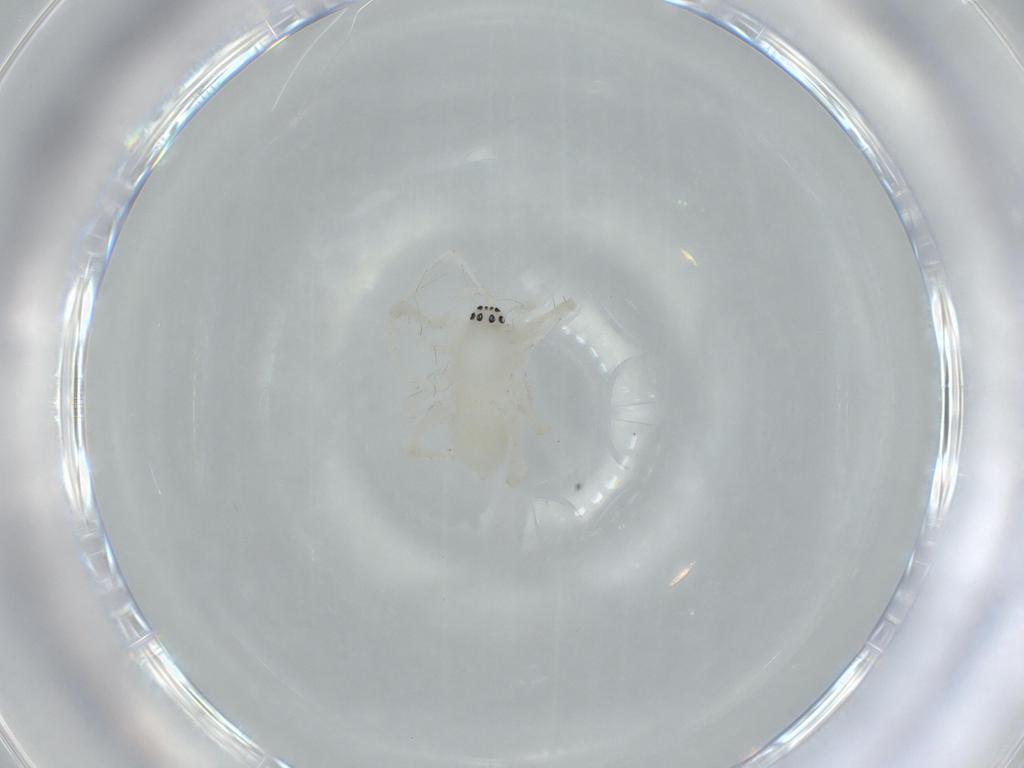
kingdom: Animalia
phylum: Arthropoda
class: Arachnida
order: Araneae
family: Anyphaenidae
